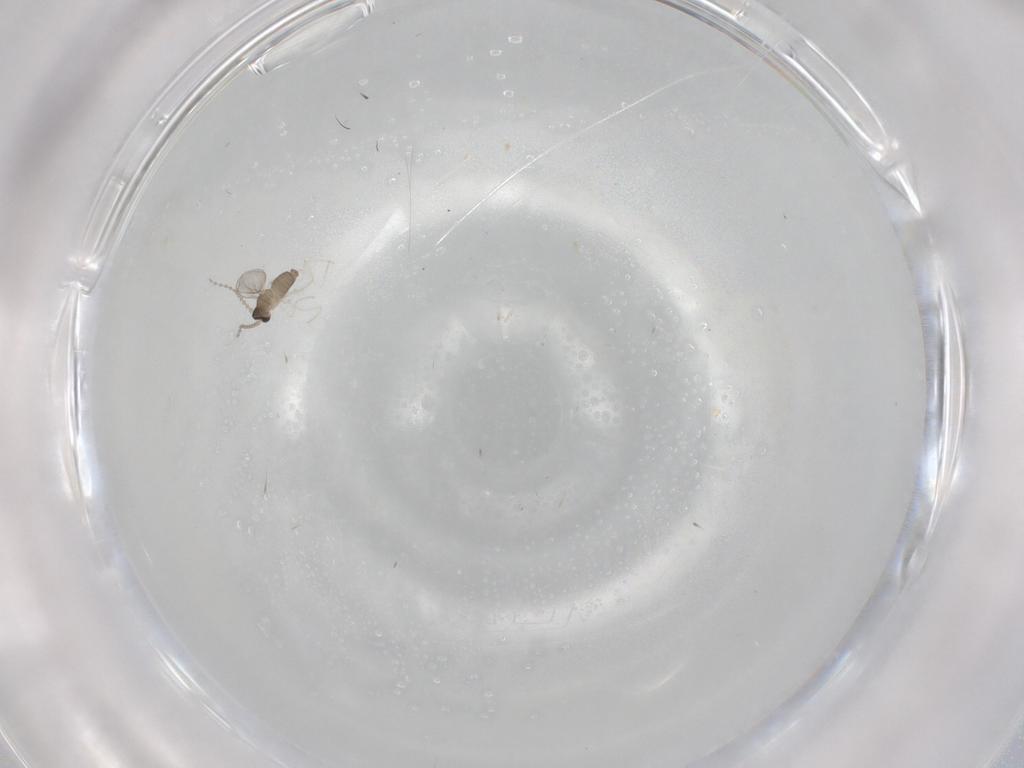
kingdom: Animalia
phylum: Arthropoda
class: Insecta
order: Diptera
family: Cecidomyiidae
